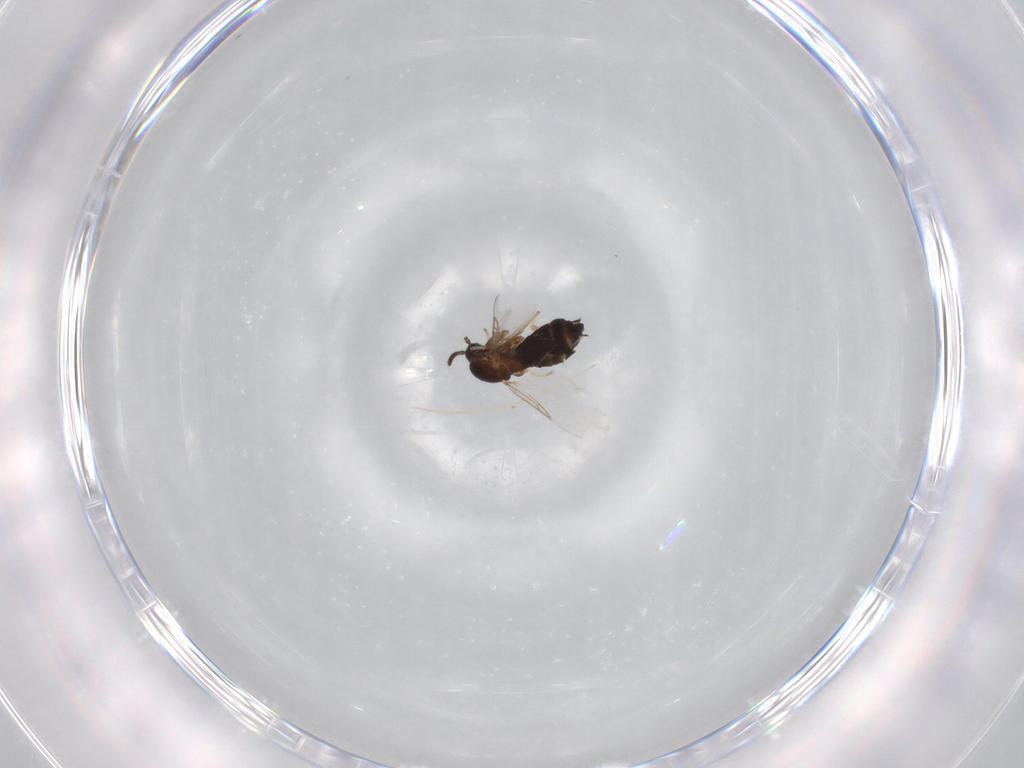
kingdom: Animalia
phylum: Arthropoda
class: Insecta
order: Diptera
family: Scatopsidae
